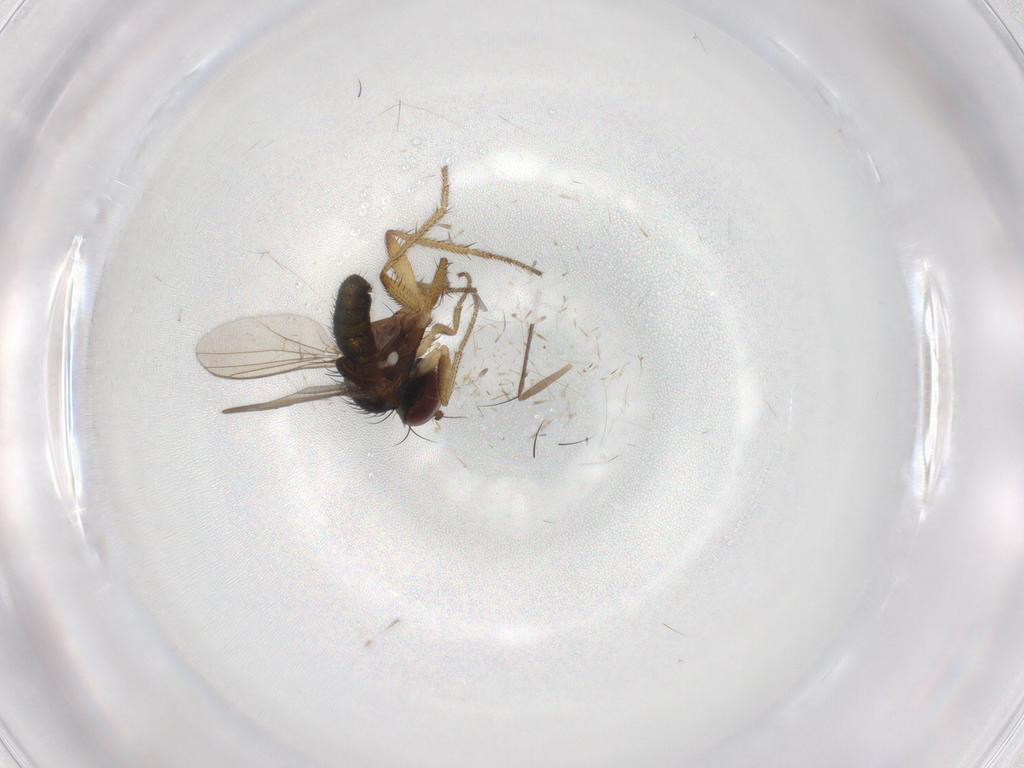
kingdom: Animalia
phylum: Arthropoda
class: Insecta
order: Diptera
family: Chironomidae
